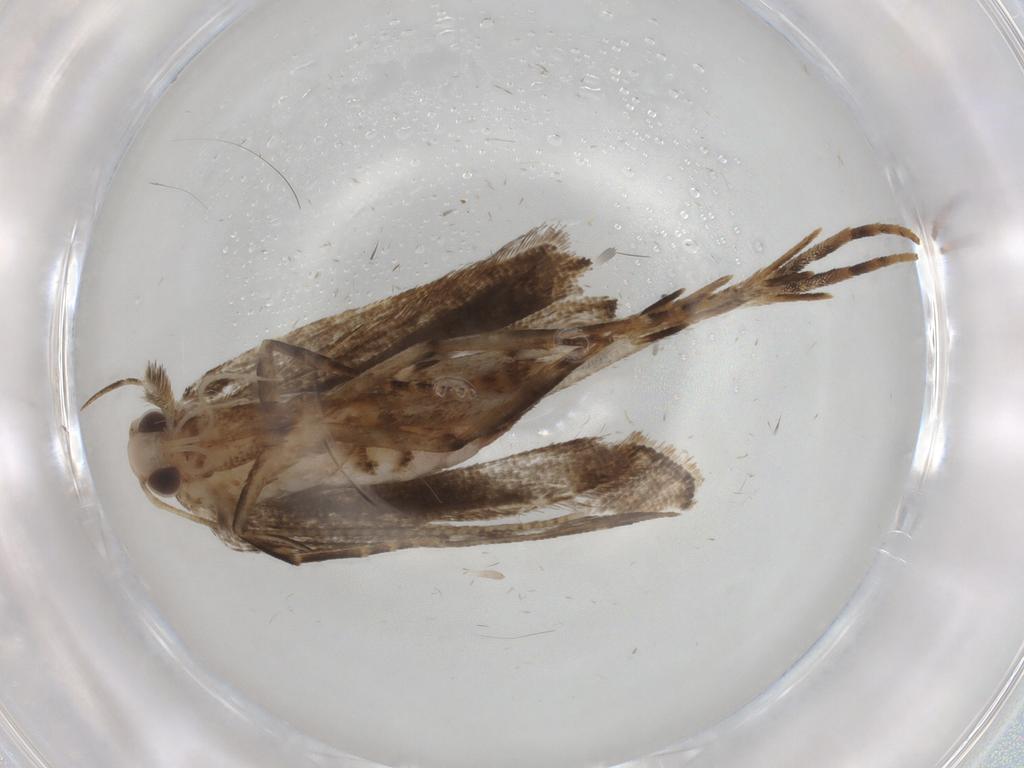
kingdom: Animalia
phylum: Arthropoda
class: Insecta
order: Lepidoptera
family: Gelechiidae
